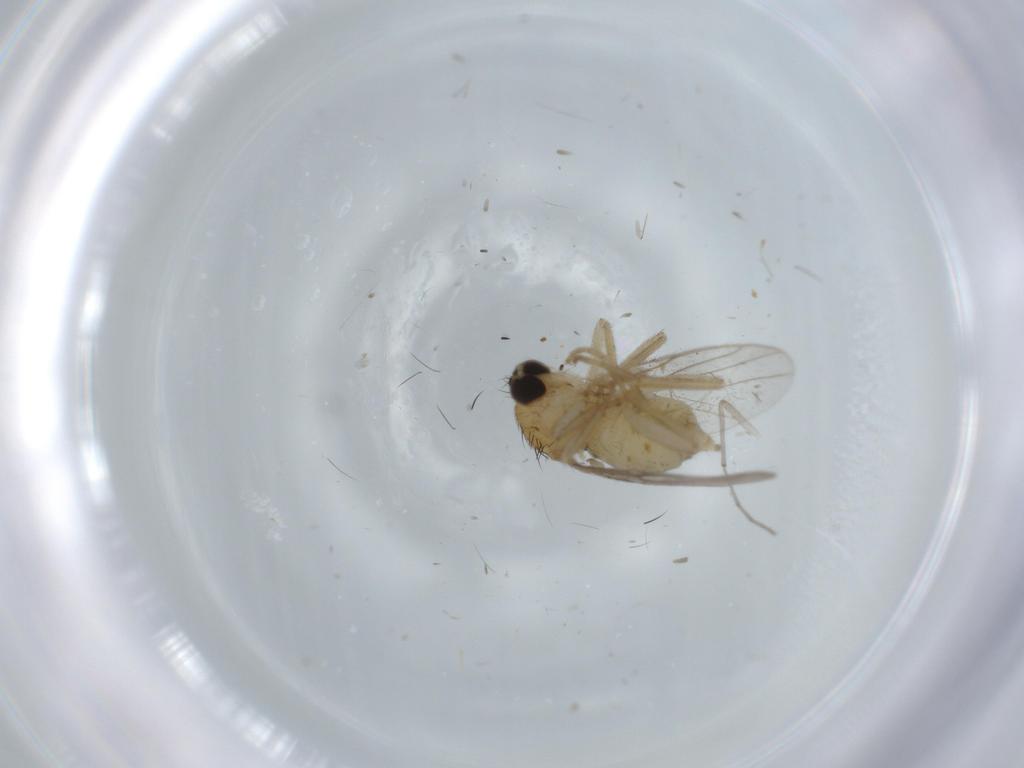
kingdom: Animalia
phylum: Arthropoda
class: Insecta
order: Diptera
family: Hybotidae
